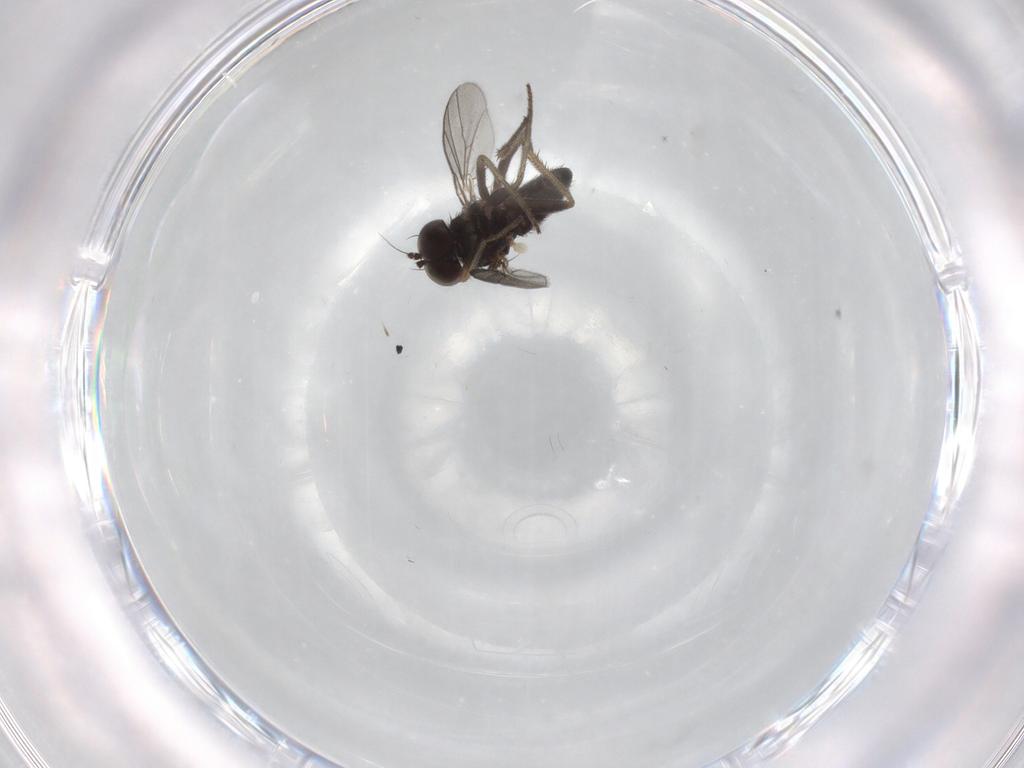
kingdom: Animalia
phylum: Arthropoda
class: Insecta
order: Diptera
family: Dolichopodidae
